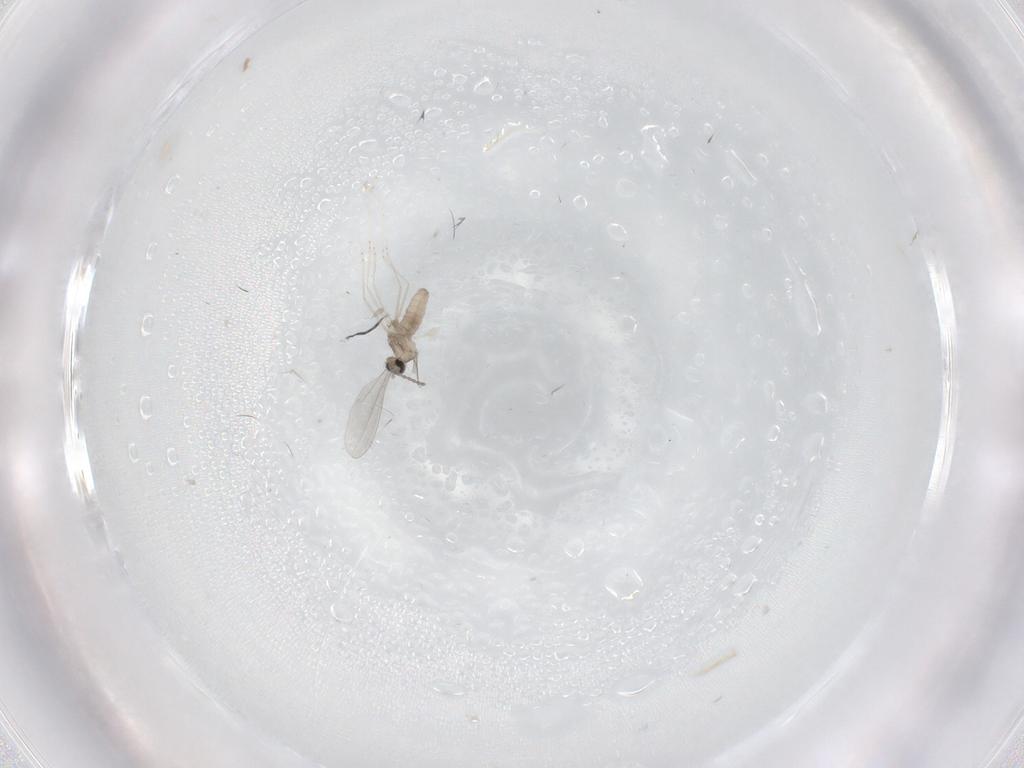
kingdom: Animalia
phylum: Arthropoda
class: Insecta
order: Diptera
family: Cecidomyiidae
